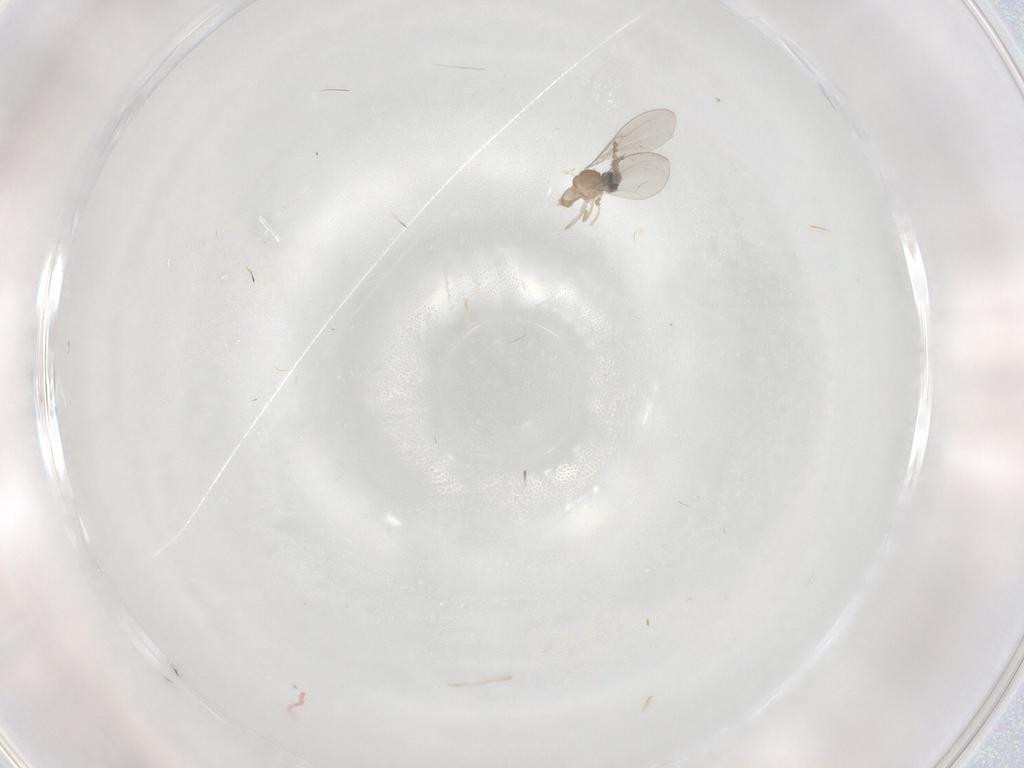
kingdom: Animalia
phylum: Arthropoda
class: Insecta
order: Diptera
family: Cecidomyiidae
